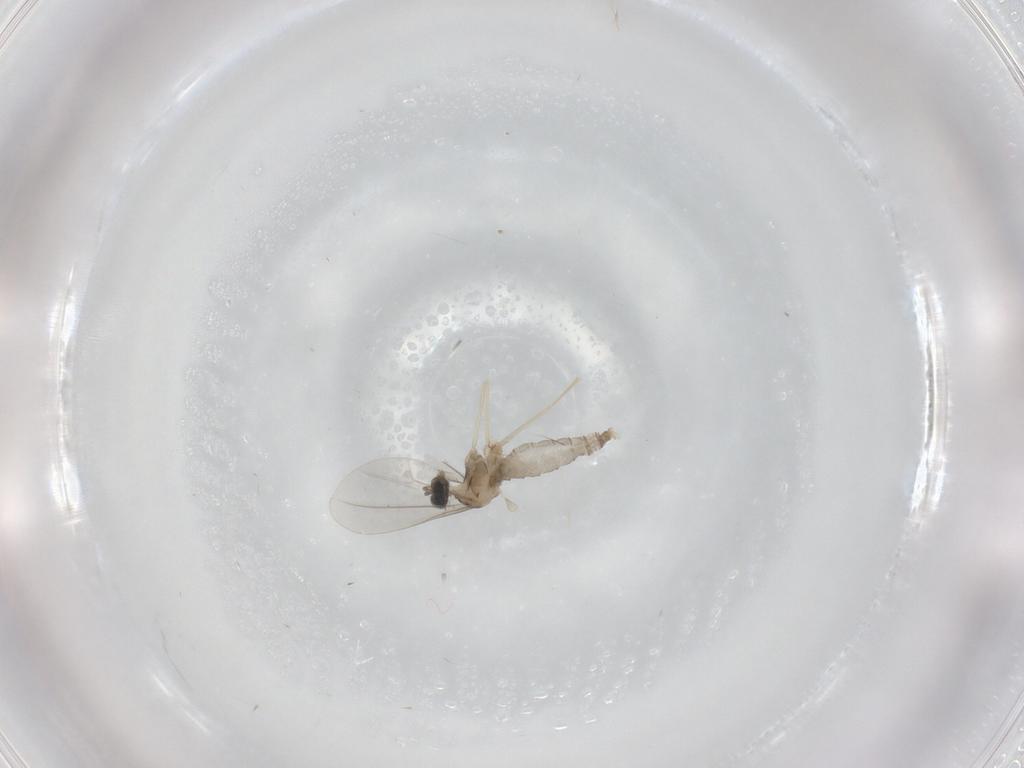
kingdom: Animalia
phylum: Arthropoda
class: Insecta
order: Diptera
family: Cecidomyiidae
